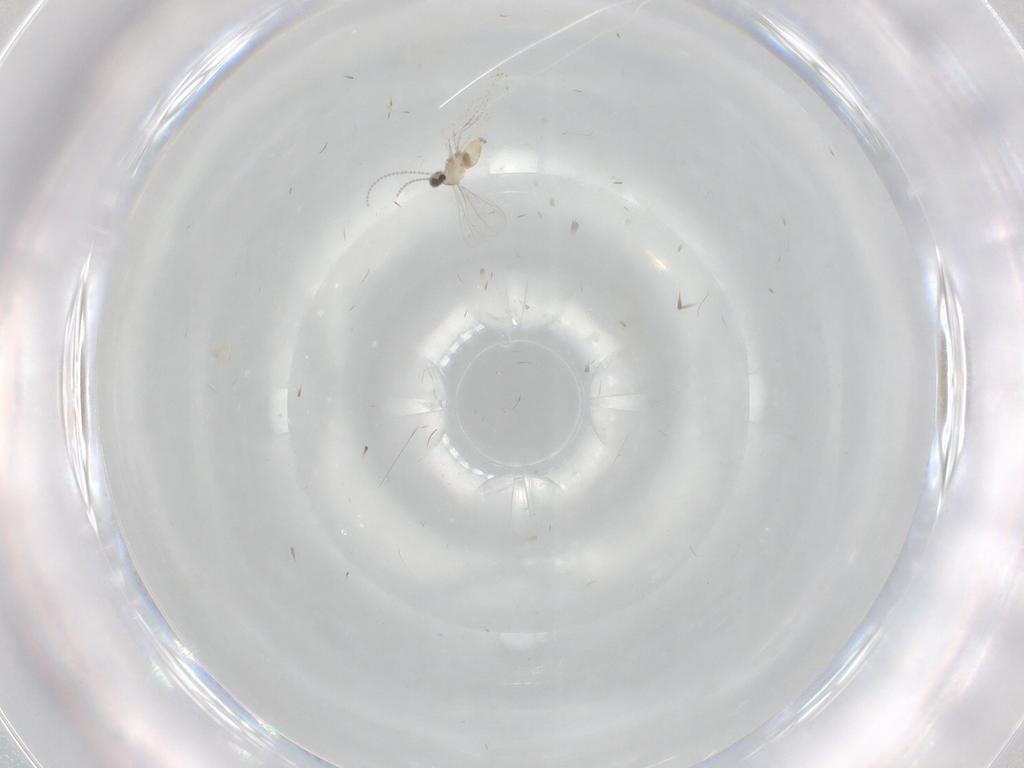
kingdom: Animalia
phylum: Arthropoda
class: Insecta
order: Diptera
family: Cecidomyiidae
